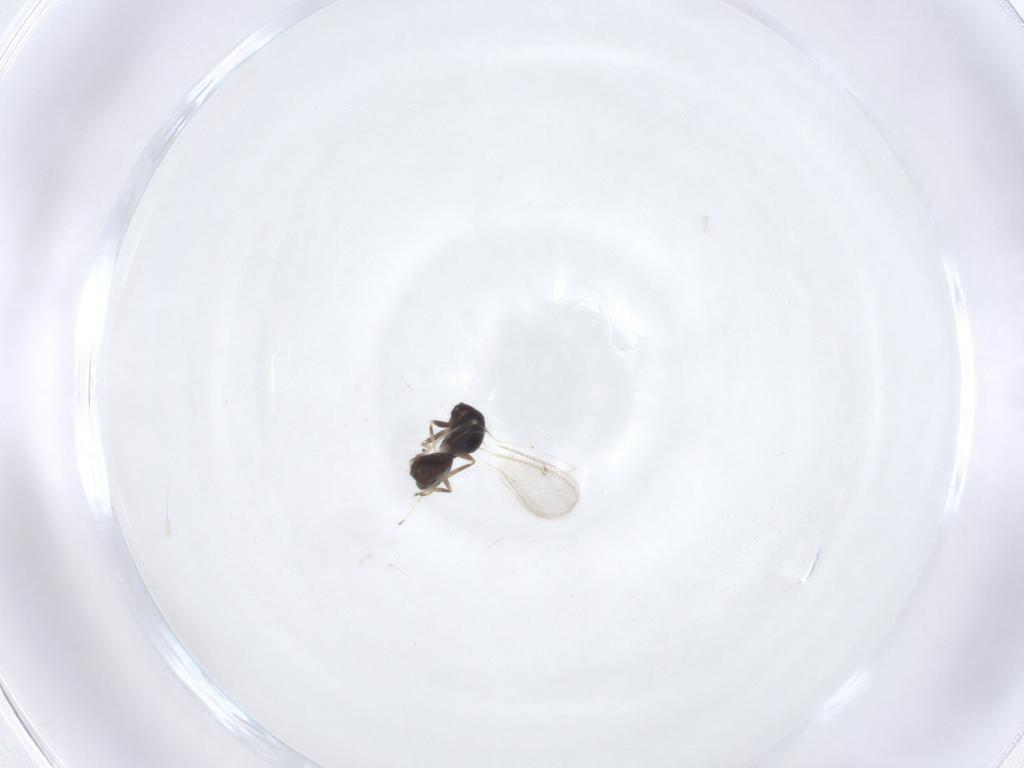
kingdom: Animalia
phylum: Arthropoda
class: Insecta
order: Hymenoptera
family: Eulophidae
